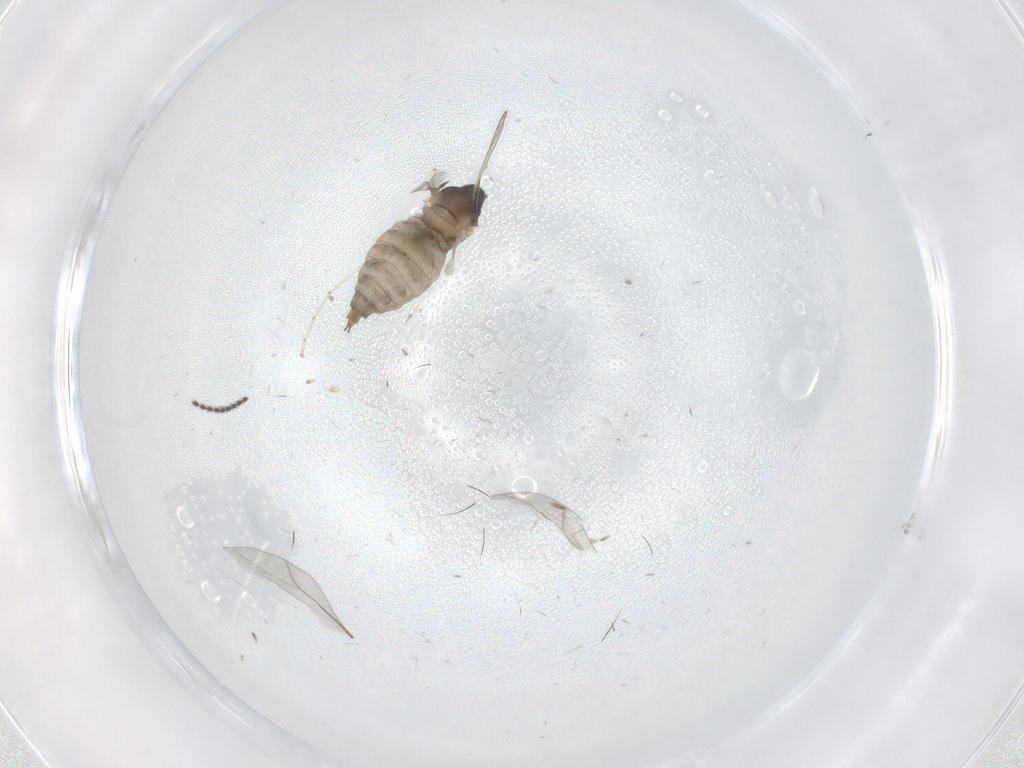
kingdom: Animalia
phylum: Arthropoda
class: Insecta
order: Diptera
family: Cecidomyiidae
